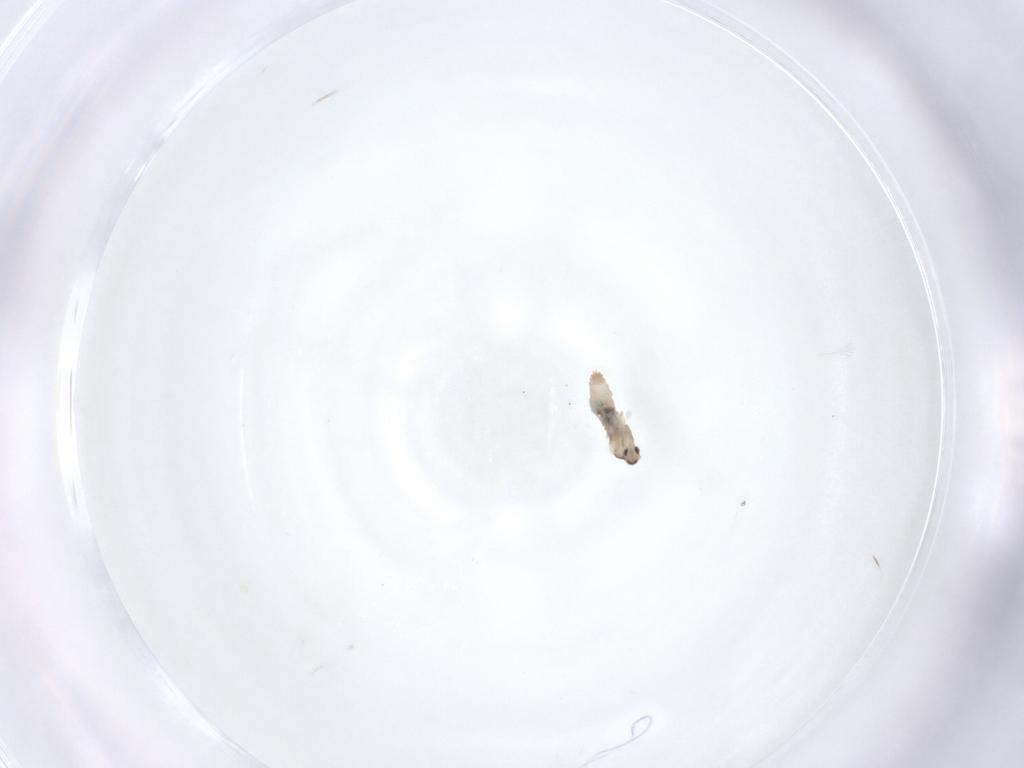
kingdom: Animalia
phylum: Arthropoda
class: Insecta
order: Diptera
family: Cecidomyiidae
